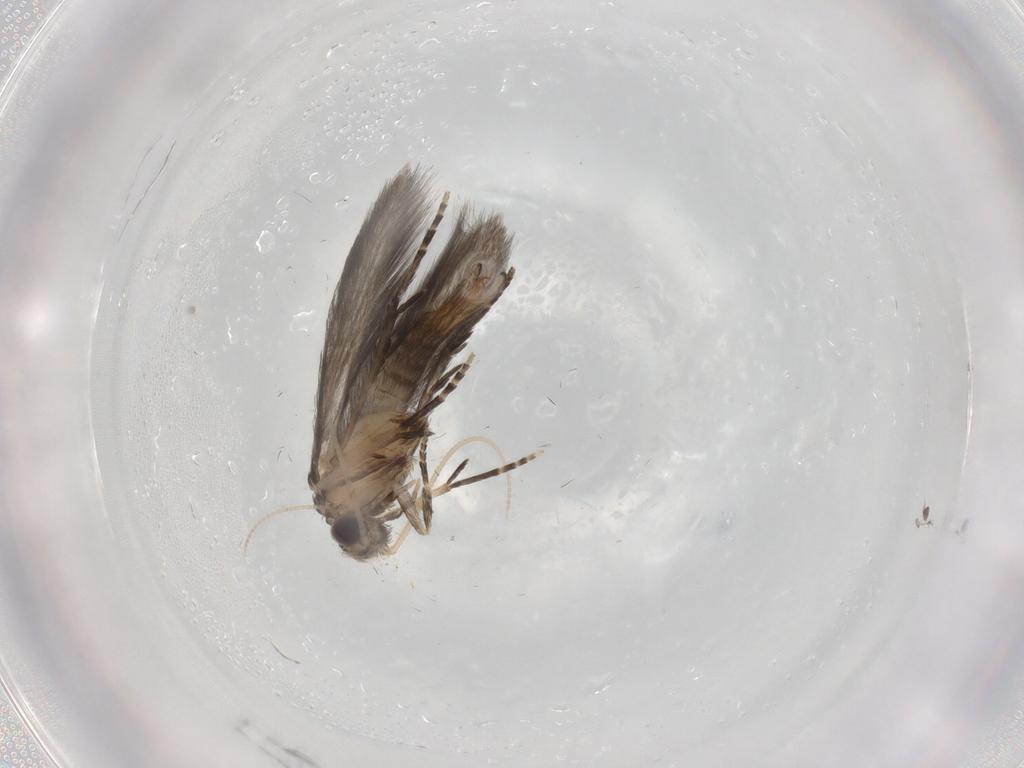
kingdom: Animalia
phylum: Arthropoda
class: Insecta
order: Trichoptera
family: Hydroptilidae
